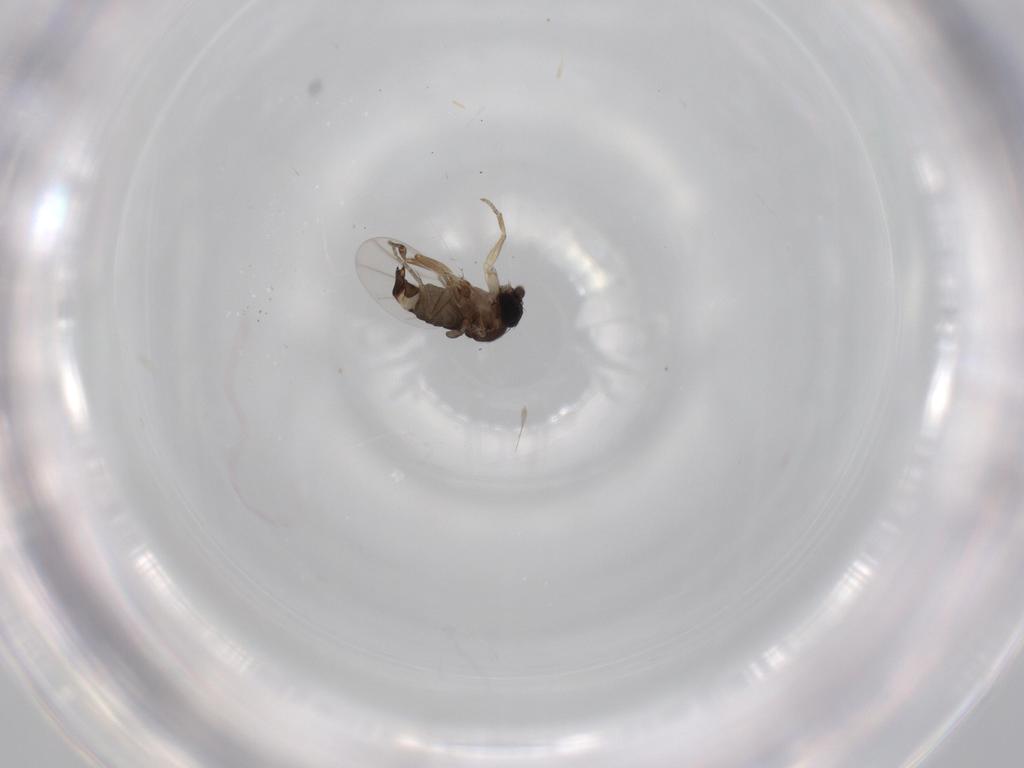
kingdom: Animalia
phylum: Arthropoda
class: Insecta
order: Diptera
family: Phoridae
